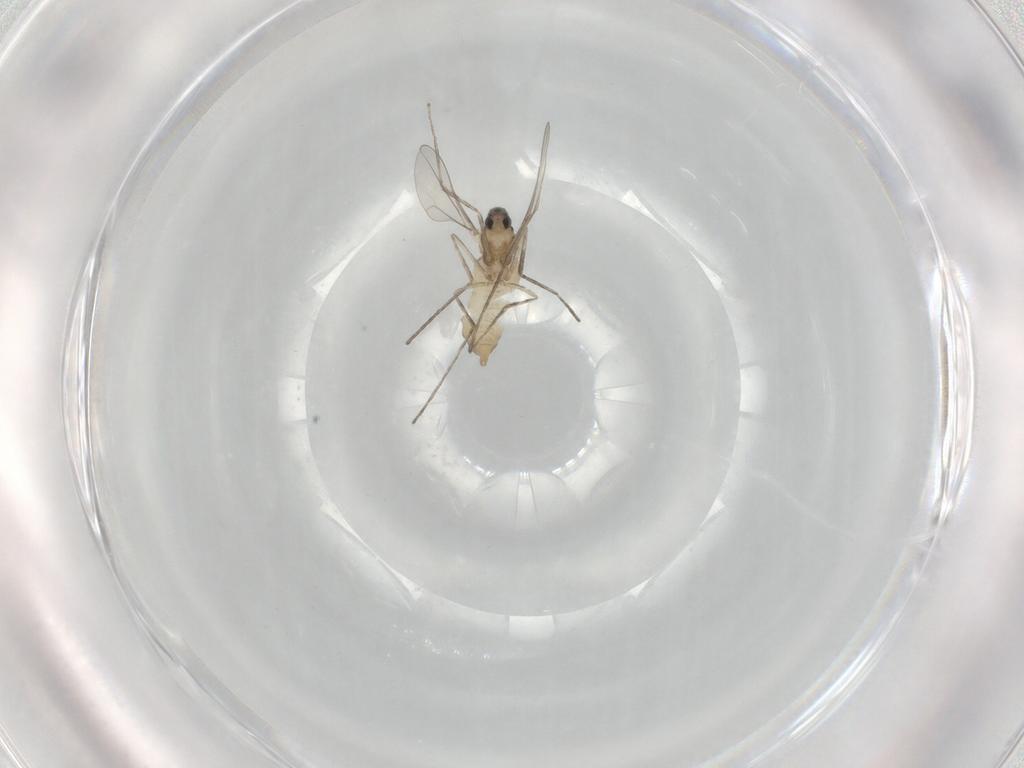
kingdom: Animalia
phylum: Arthropoda
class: Insecta
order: Diptera
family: Cecidomyiidae
